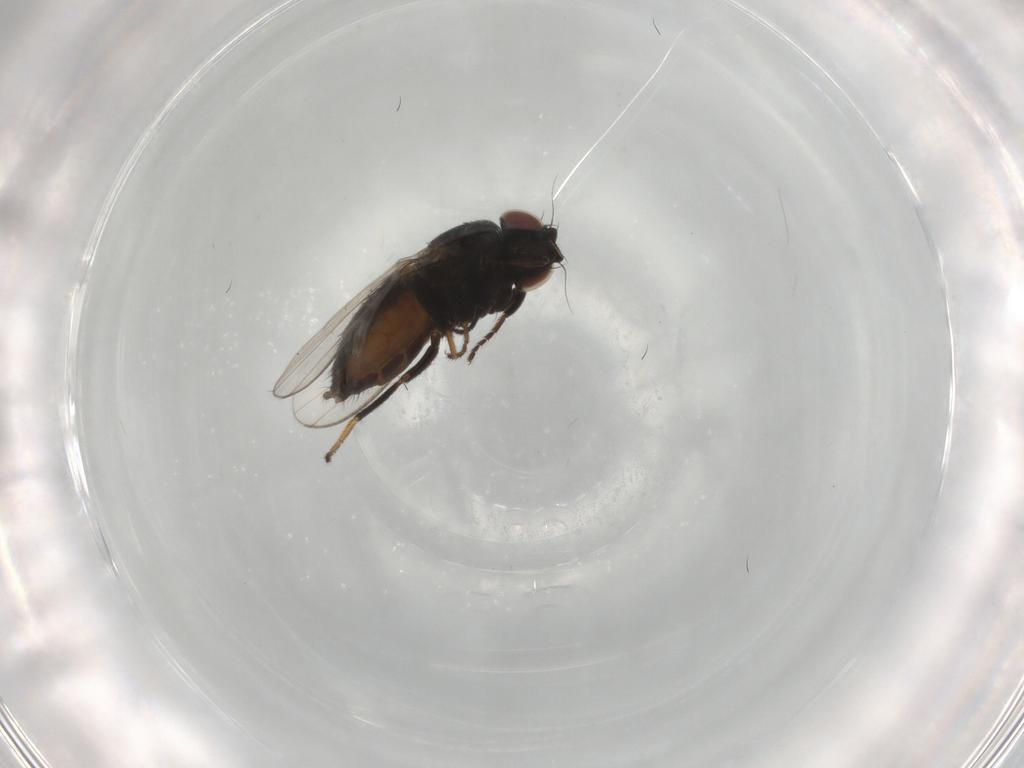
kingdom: Animalia
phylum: Arthropoda
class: Insecta
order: Diptera
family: Milichiidae
